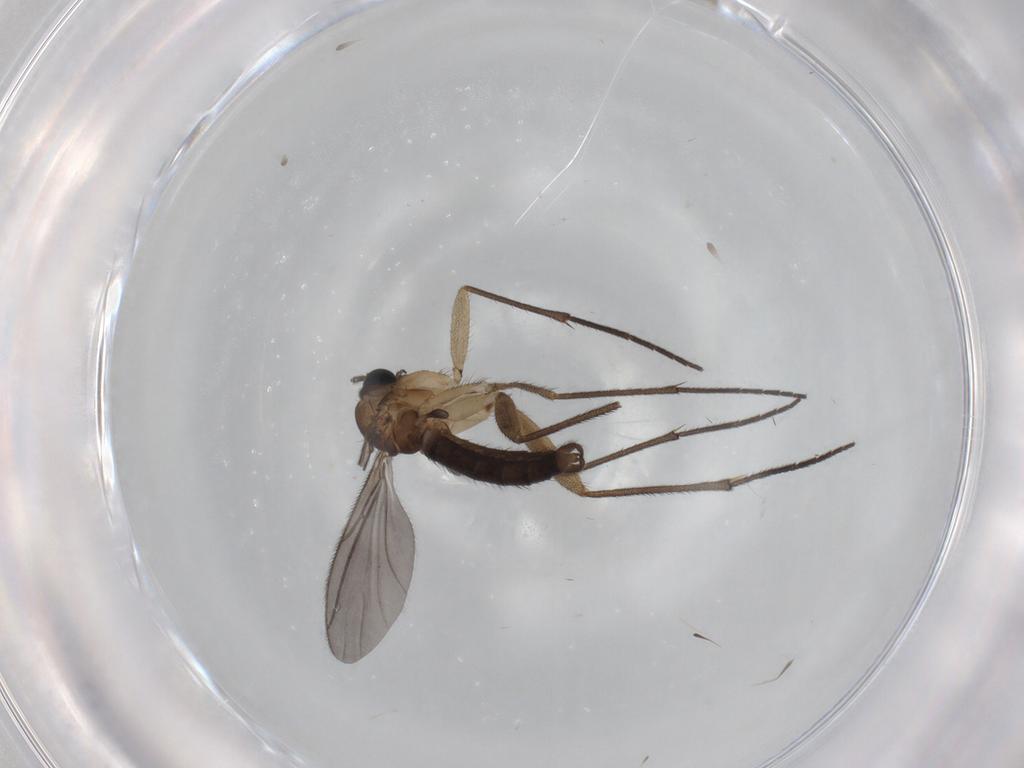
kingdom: Animalia
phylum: Arthropoda
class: Insecta
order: Diptera
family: Sciaridae
